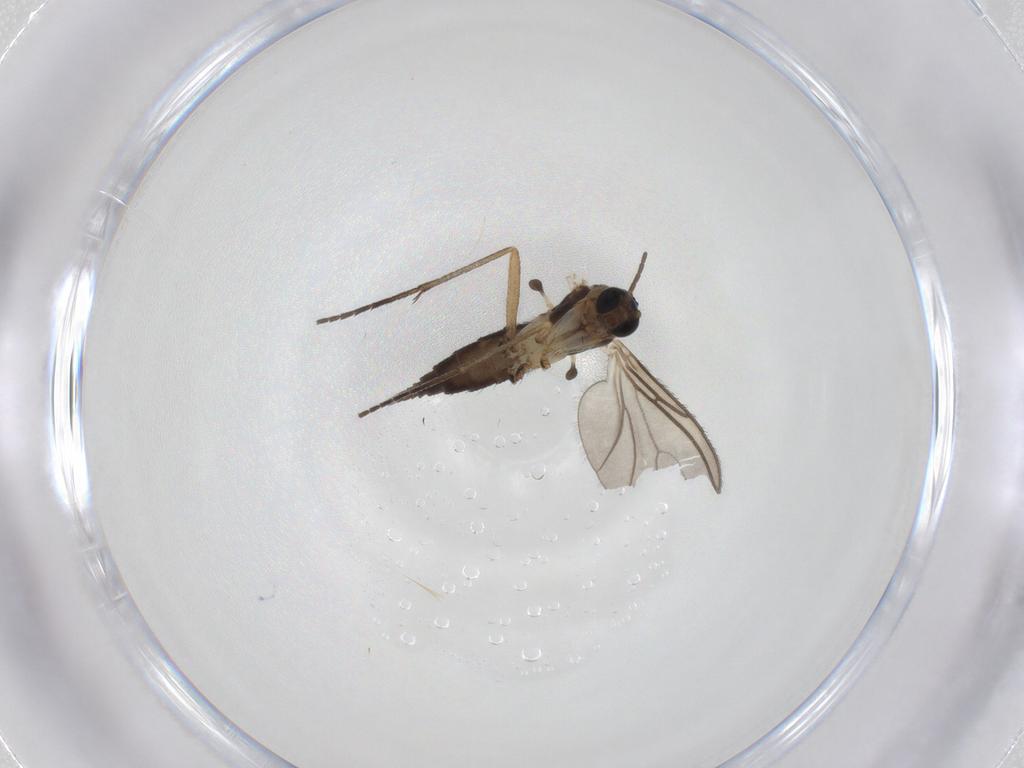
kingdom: Animalia
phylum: Arthropoda
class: Insecta
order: Diptera
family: Sciaridae
